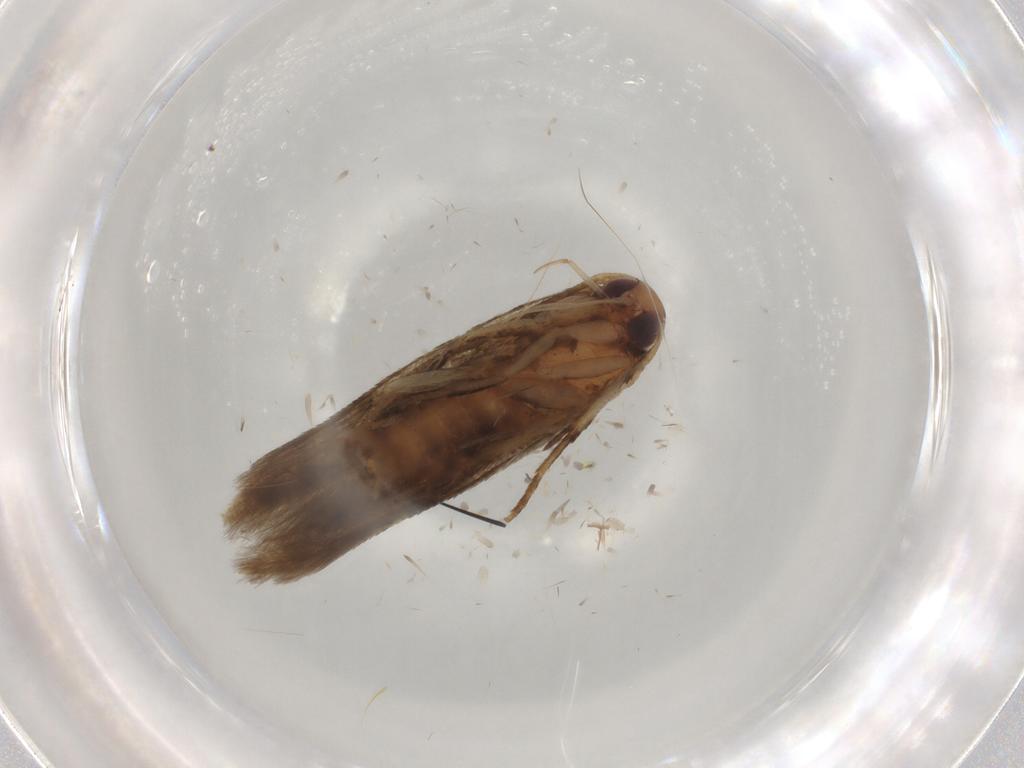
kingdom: Animalia
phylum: Arthropoda
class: Insecta
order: Lepidoptera
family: Cosmopterigidae
